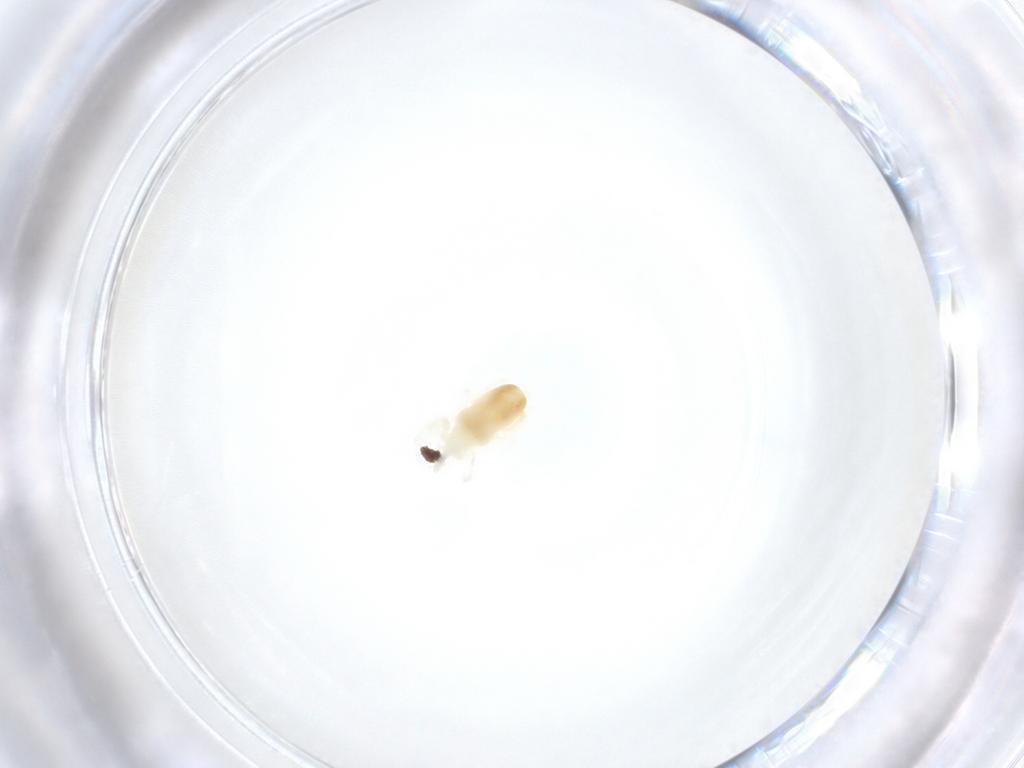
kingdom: Animalia
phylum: Arthropoda
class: Arachnida
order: Trombidiformes
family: Rhagidiidae
